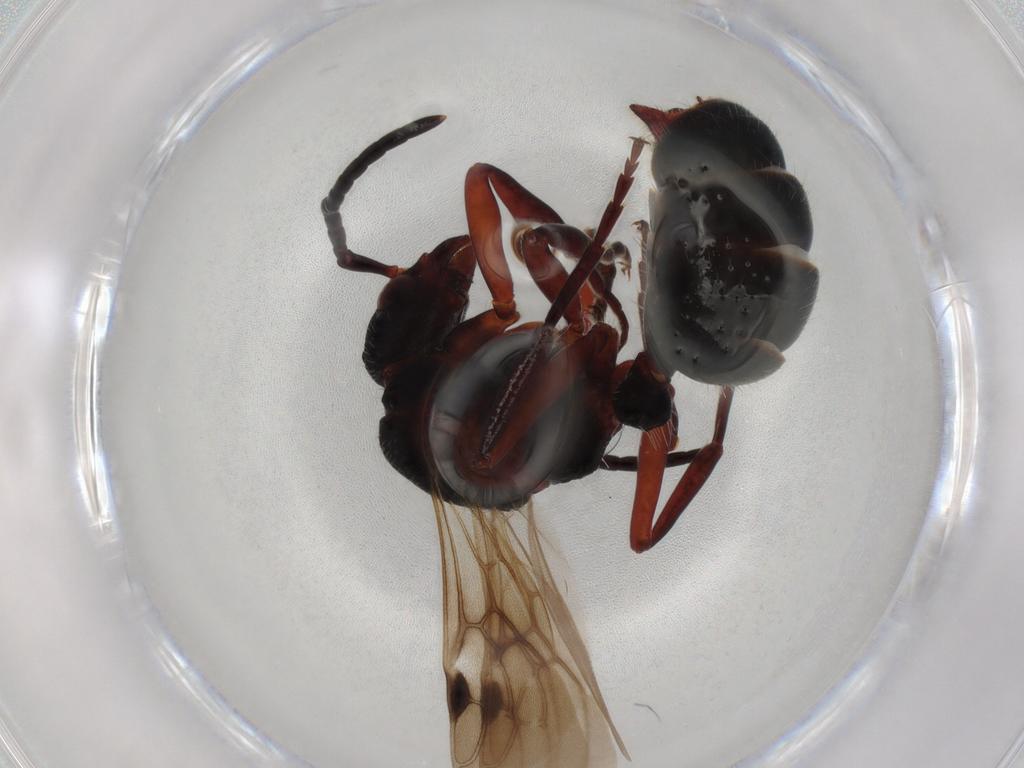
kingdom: Animalia
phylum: Arthropoda
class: Insecta
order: Hymenoptera
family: Formicidae
